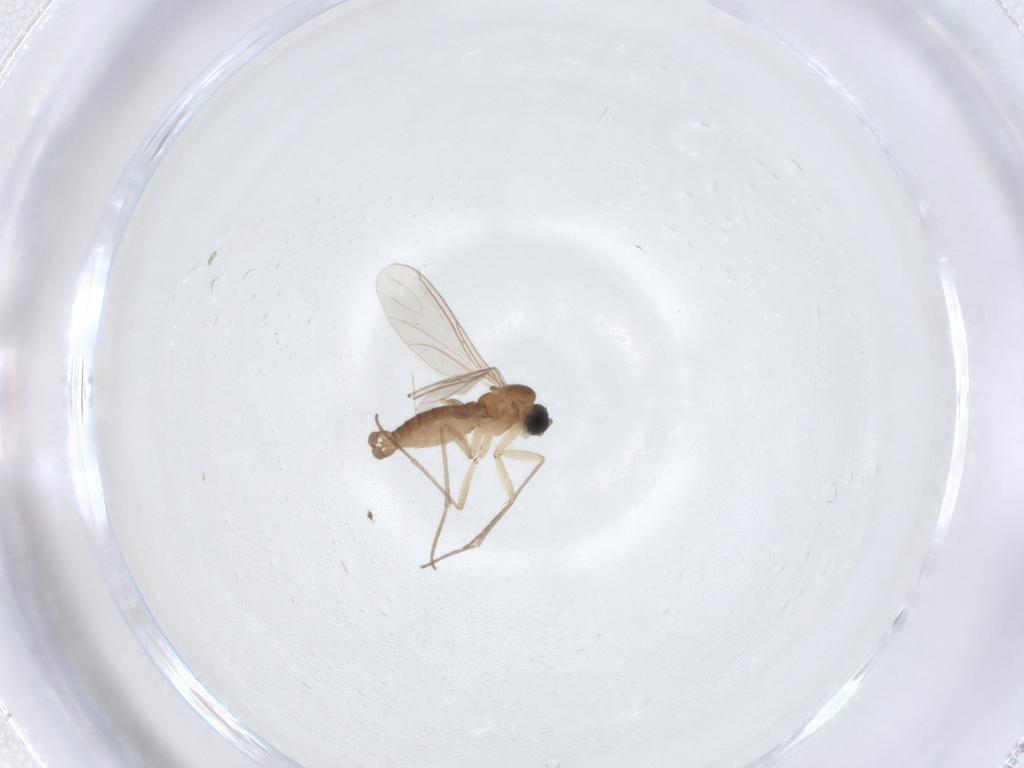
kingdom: Animalia
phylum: Arthropoda
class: Insecta
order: Diptera
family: Sciaridae
